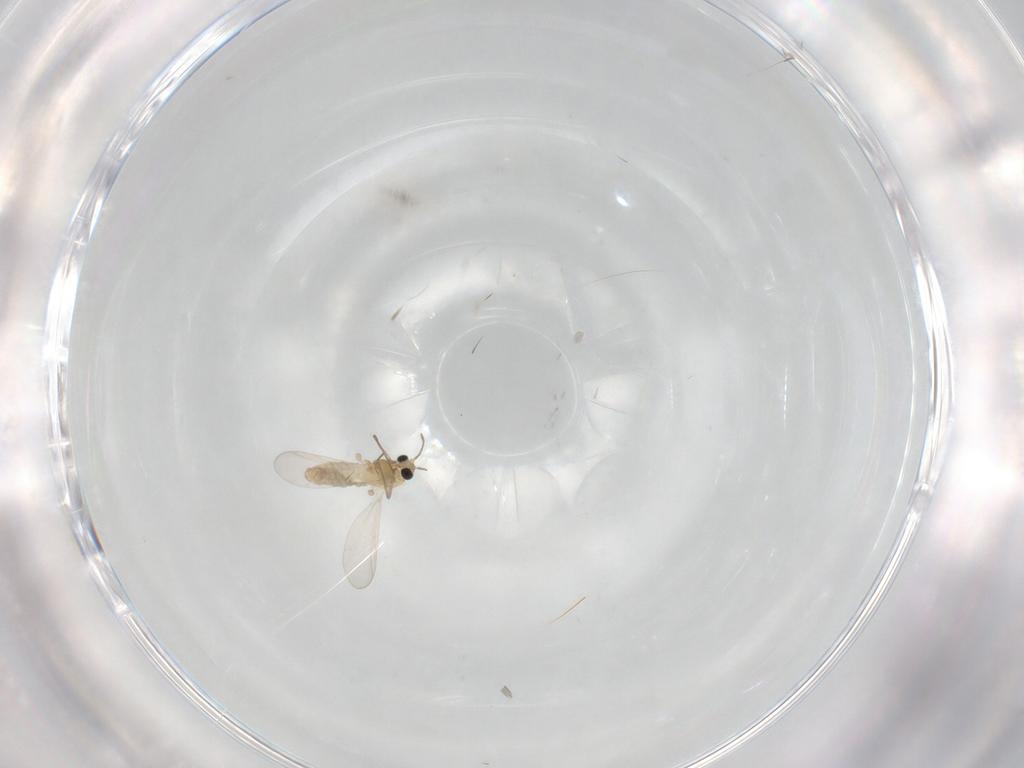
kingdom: Animalia
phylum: Arthropoda
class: Insecta
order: Diptera
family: Chironomidae
